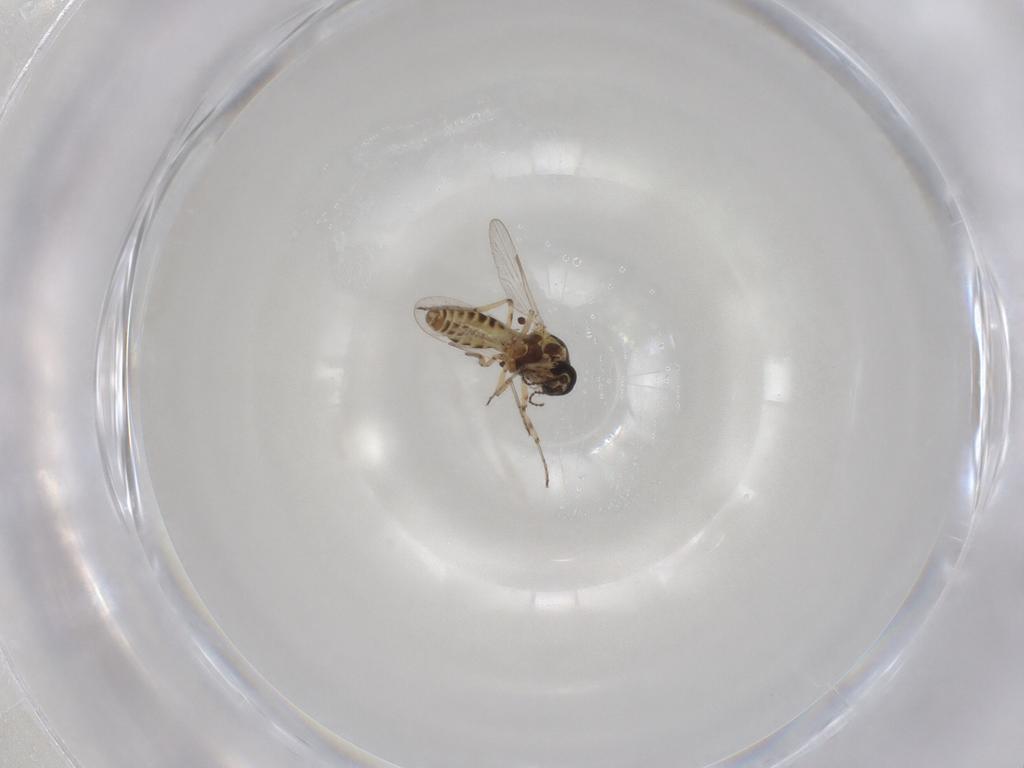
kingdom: Animalia
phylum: Arthropoda
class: Insecta
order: Diptera
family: Ceratopogonidae
